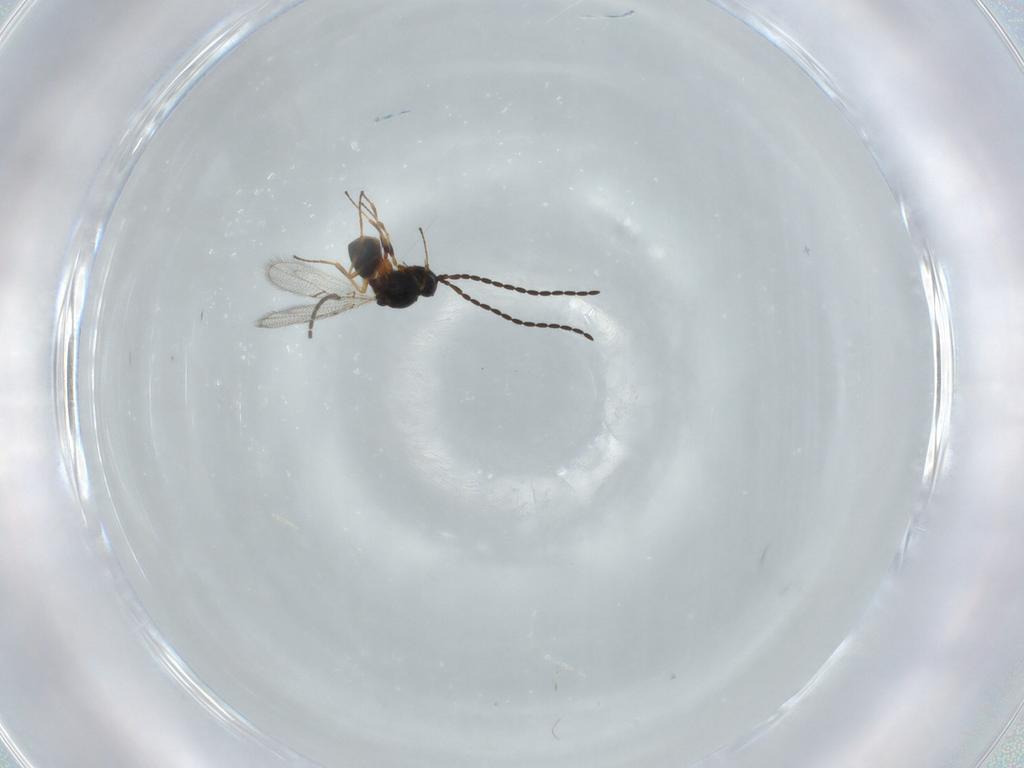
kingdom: Animalia
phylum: Arthropoda
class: Insecta
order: Hymenoptera
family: Figitidae
